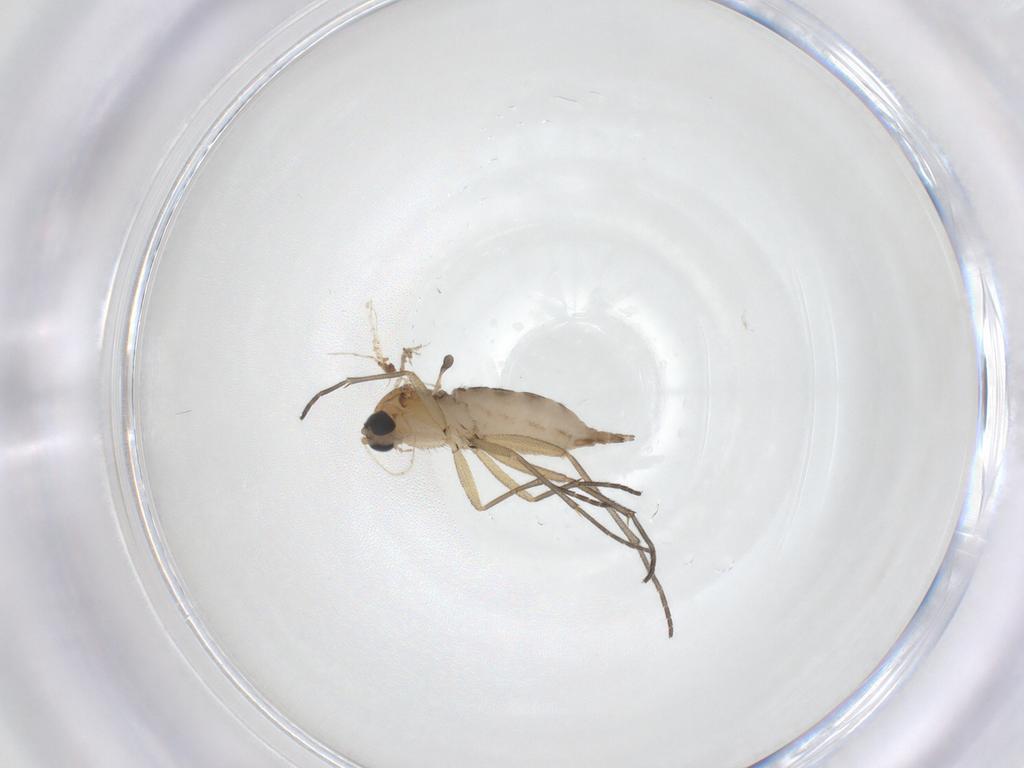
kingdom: Animalia
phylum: Arthropoda
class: Insecta
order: Diptera
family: Sciaridae
